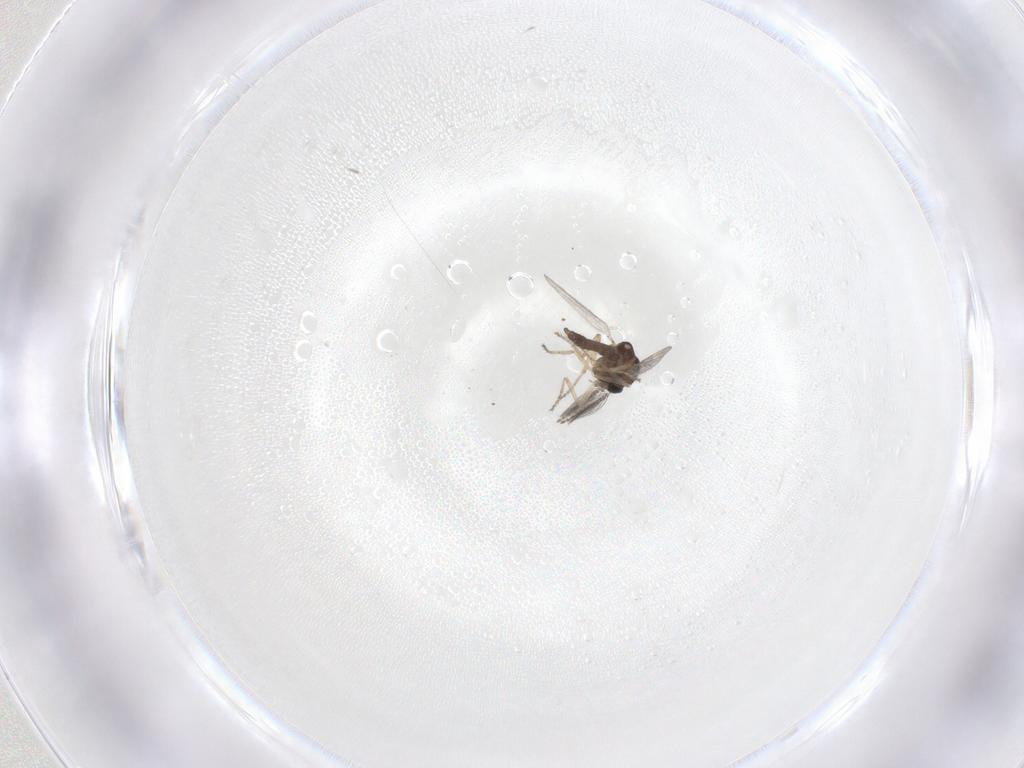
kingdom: Animalia
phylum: Arthropoda
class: Insecta
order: Diptera
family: Ceratopogonidae
